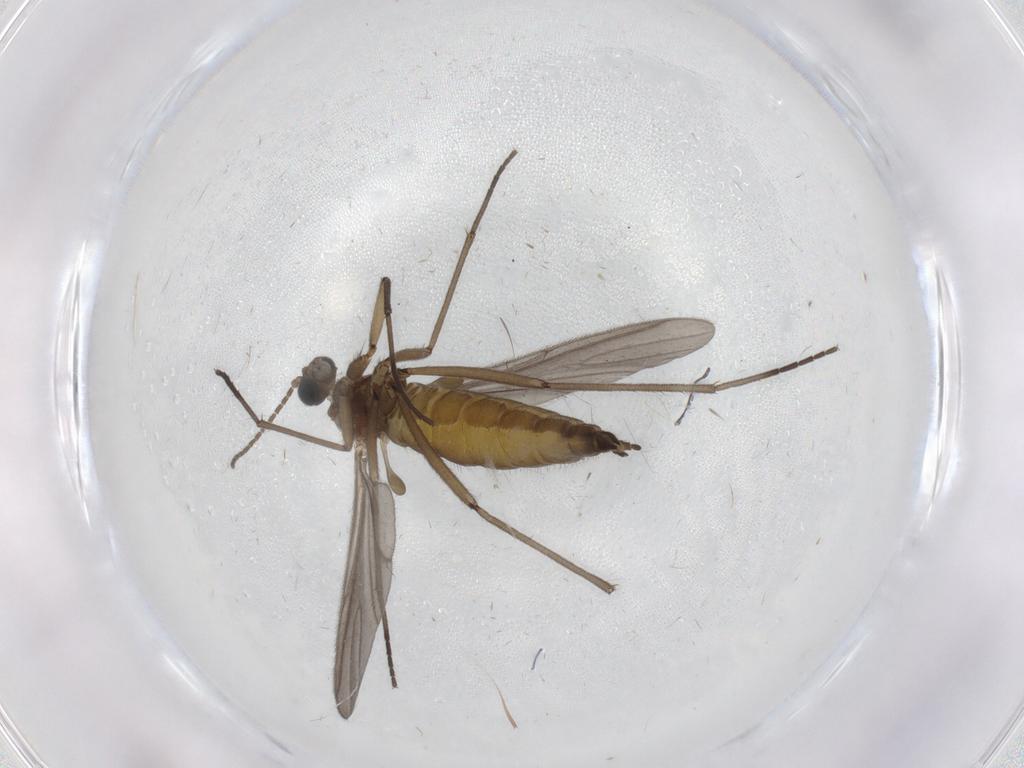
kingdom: Animalia
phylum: Arthropoda
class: Insecta
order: Diptera
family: Sciaridae
